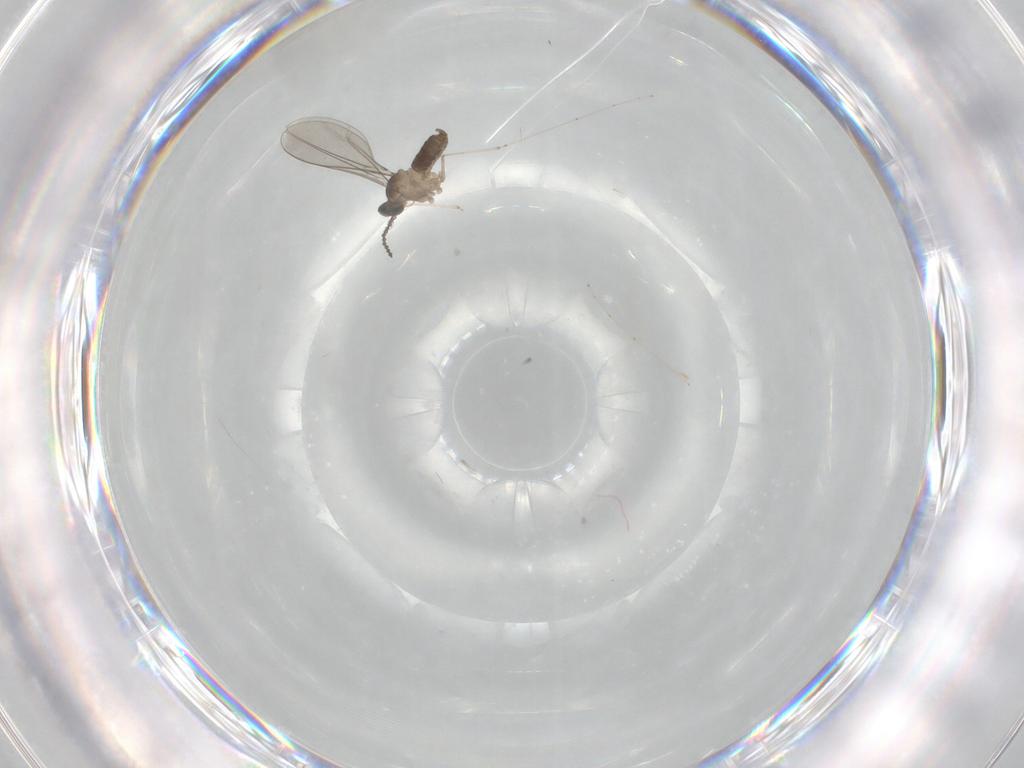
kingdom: Animalia
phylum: Arthropoda
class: Insecta
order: Diptera
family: Cecidomyiidae
